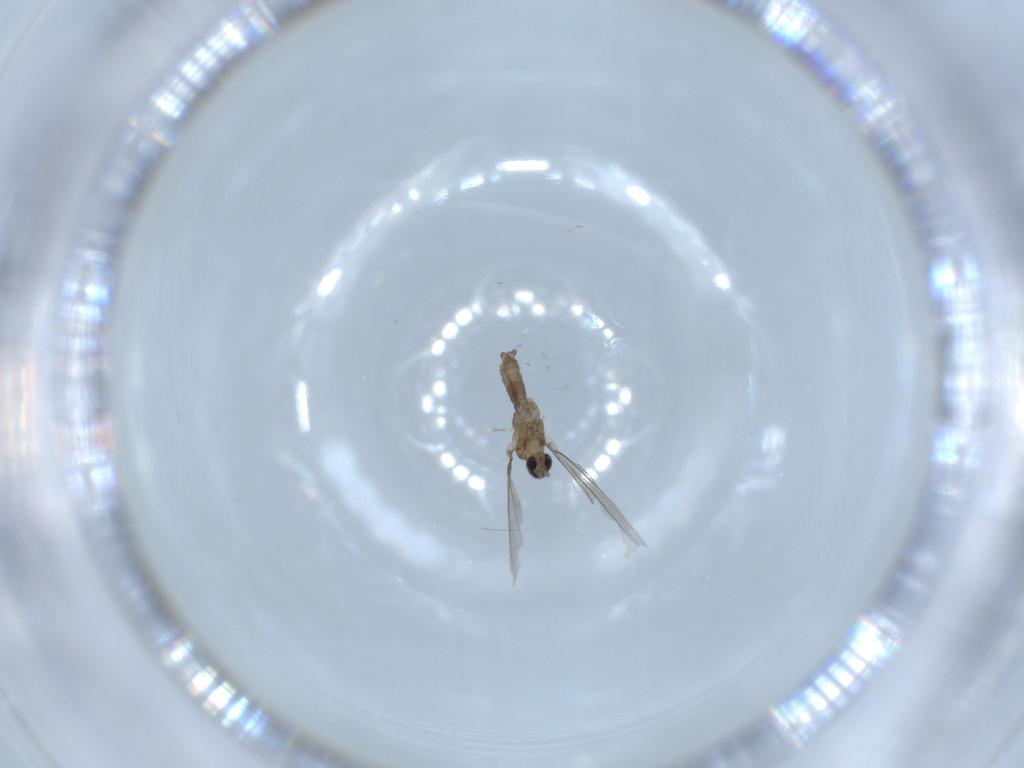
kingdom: Animalia
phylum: Arthropoda
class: Insecta
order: Diptera
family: Cecidomyiidae
